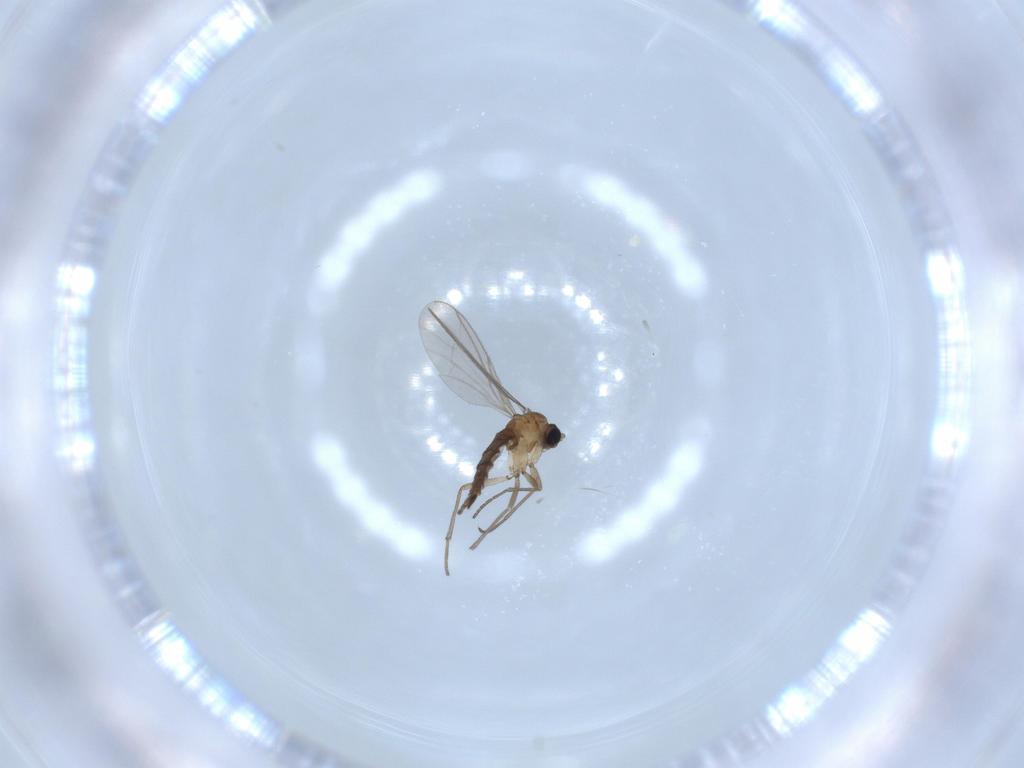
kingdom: Animalia
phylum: Arthropoda
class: Insecta
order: Diptera
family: Sciaridae
